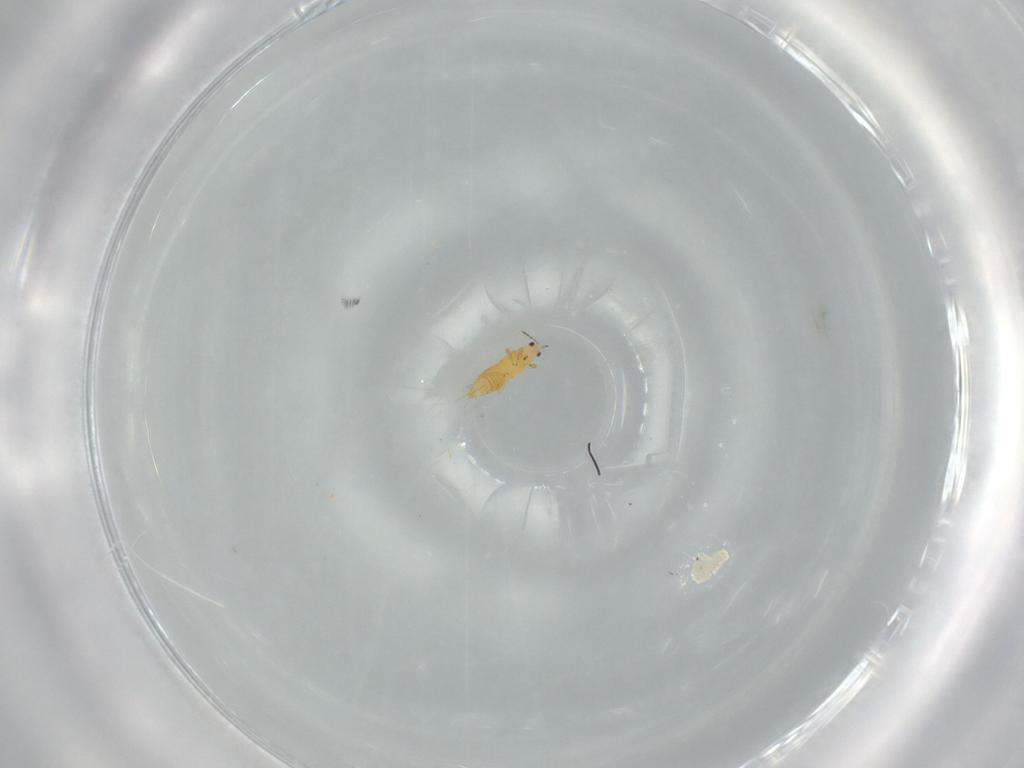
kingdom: Animalia
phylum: Arthropoda
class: Insecta
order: Thysanoptera
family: Thripidae
